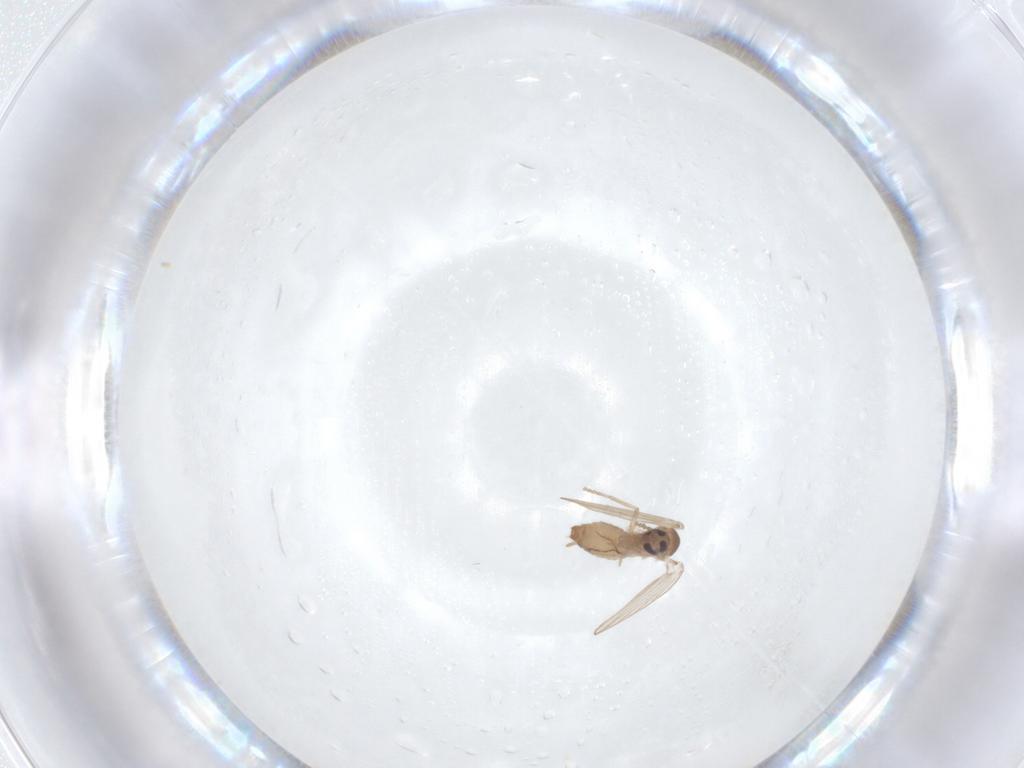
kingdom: Animalia
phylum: Arthropoda
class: Insecta
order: Diptera
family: Psychodidae
